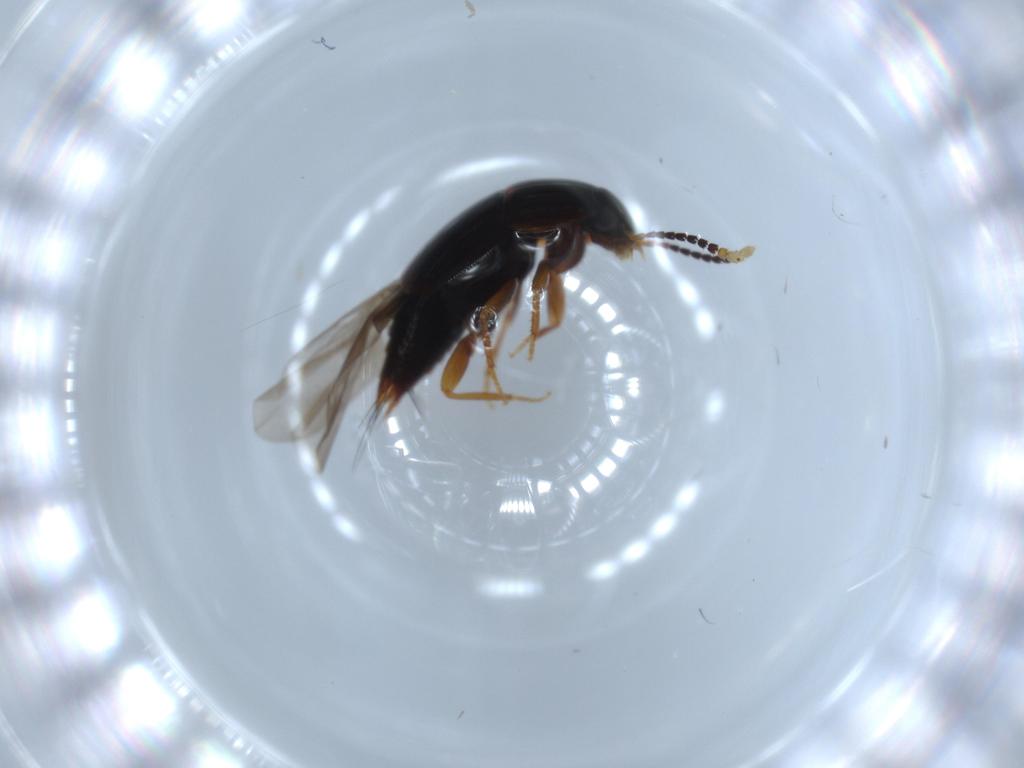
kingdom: Animalia
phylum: Arthropoda
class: Insecta
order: Coleoptera
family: Staphylinidae
